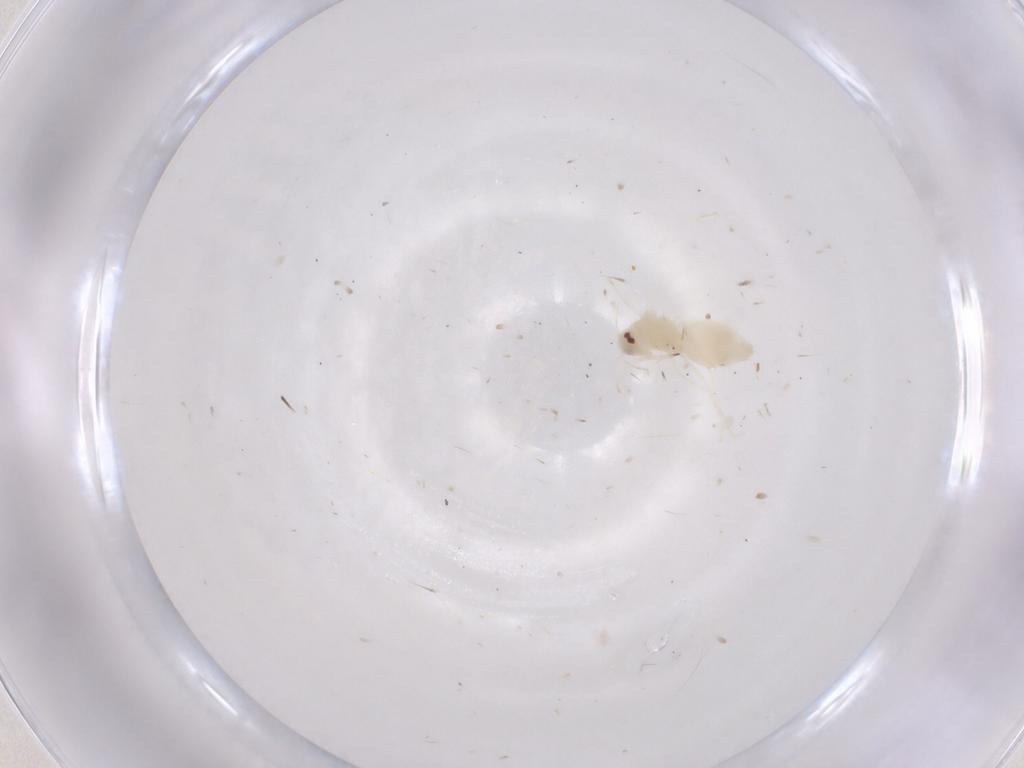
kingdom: Animalia
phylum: Arthropoda
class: Insecta
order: Hemiptera
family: Aleyrodidae
